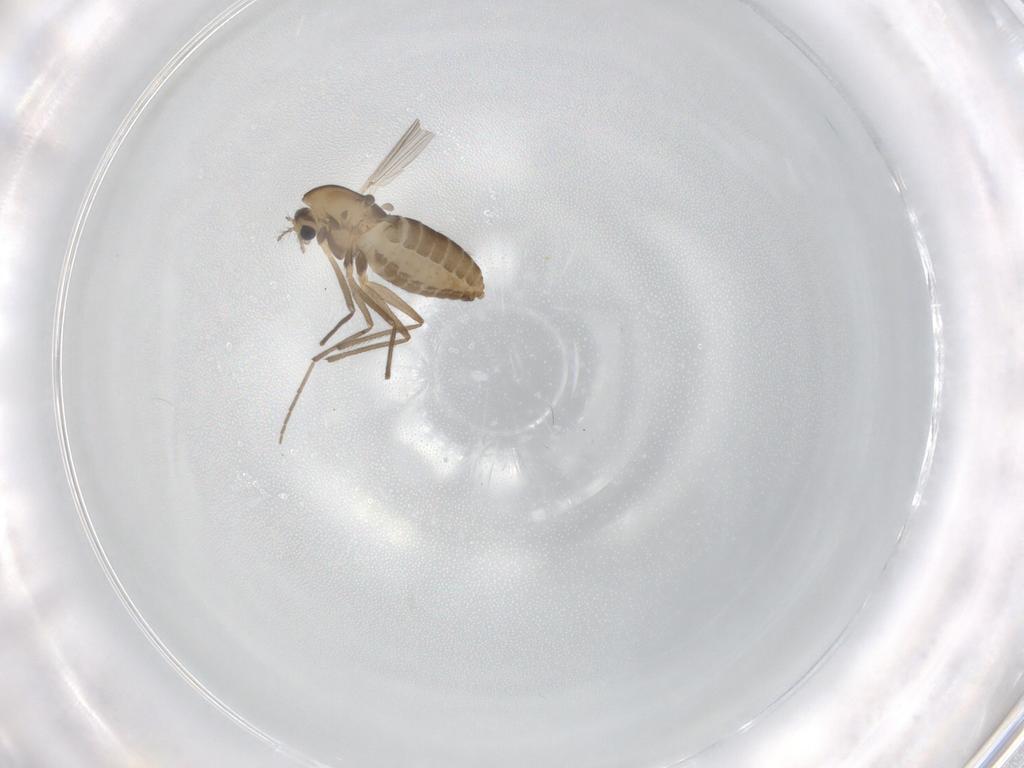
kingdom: Animalia
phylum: Arthropoda
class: Insecta
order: Diptera
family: Chironomidae
